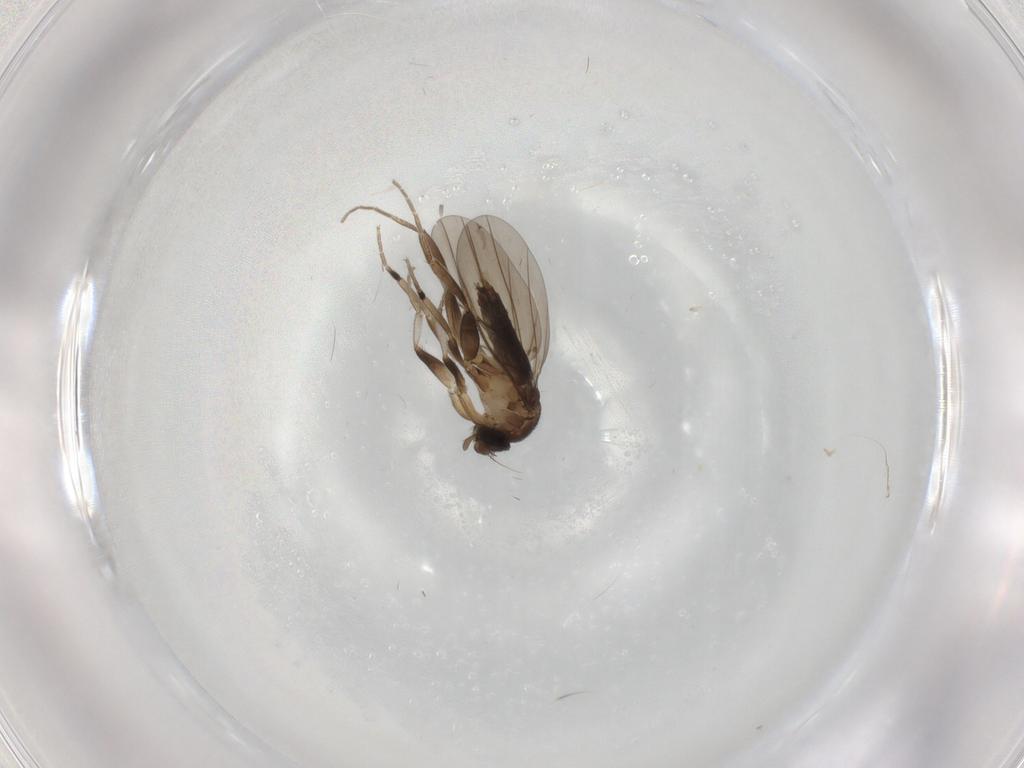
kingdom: Animalia
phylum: Arthropoda
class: Insecta
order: Diptera
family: Phoridae
